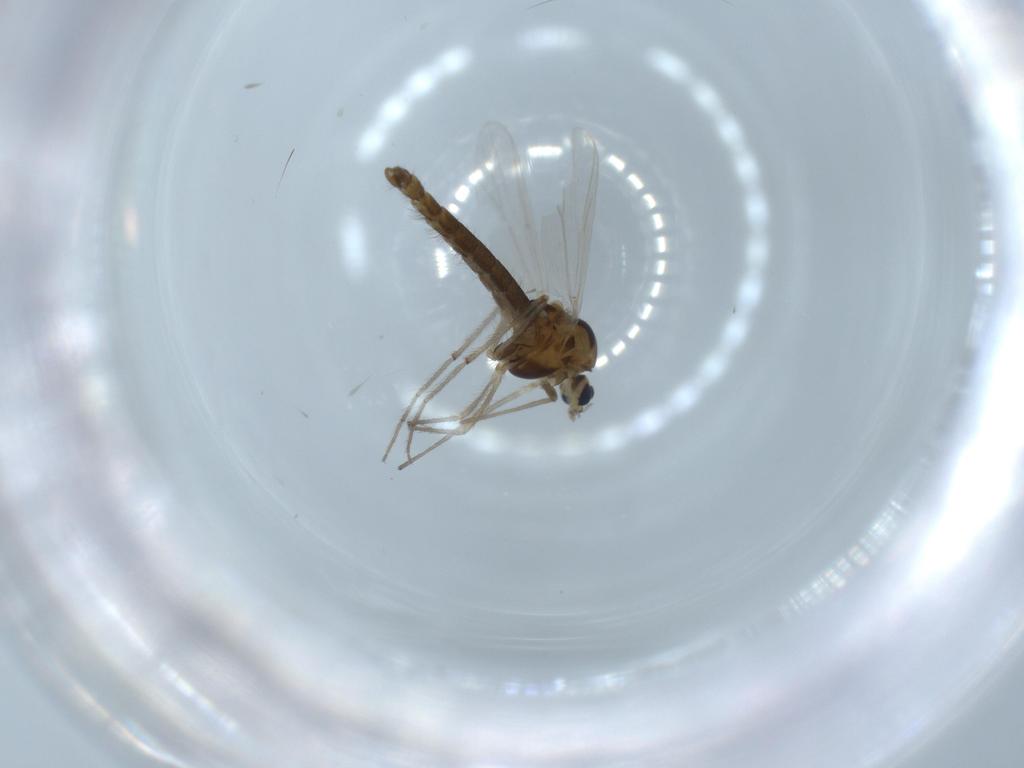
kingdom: Animalia
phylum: Arthropoda
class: Insecta
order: Diptera
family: Chironomidae
